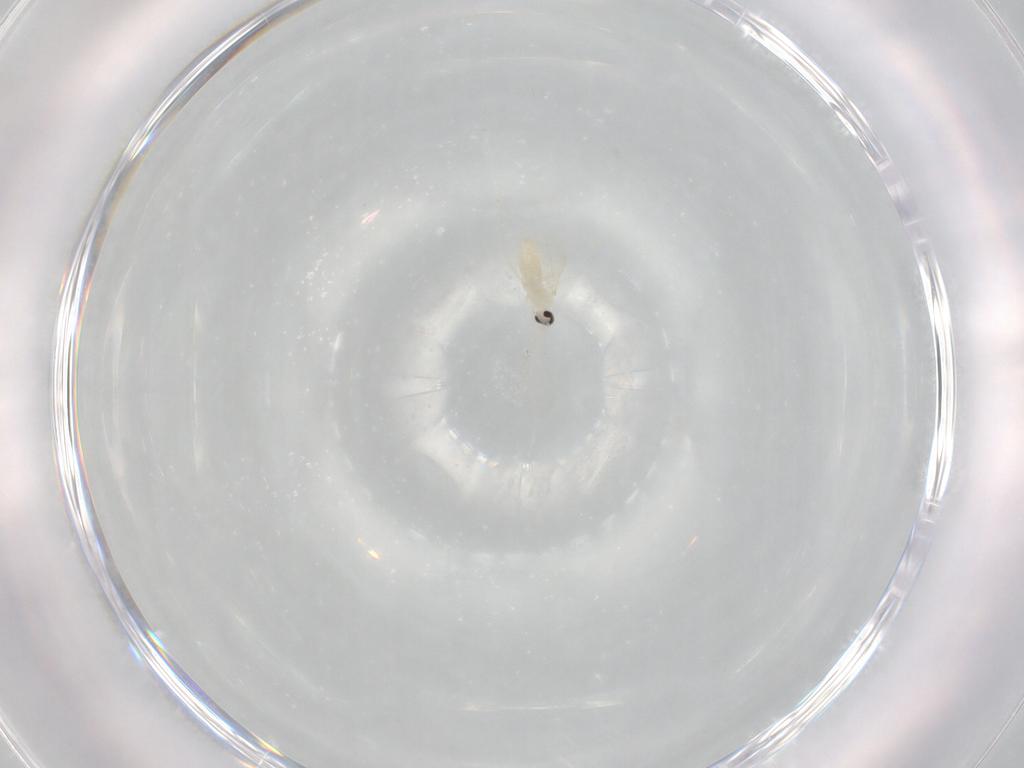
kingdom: Animalia
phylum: Arthropoda
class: Insecta
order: Diptera
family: Cecidomyiidae
